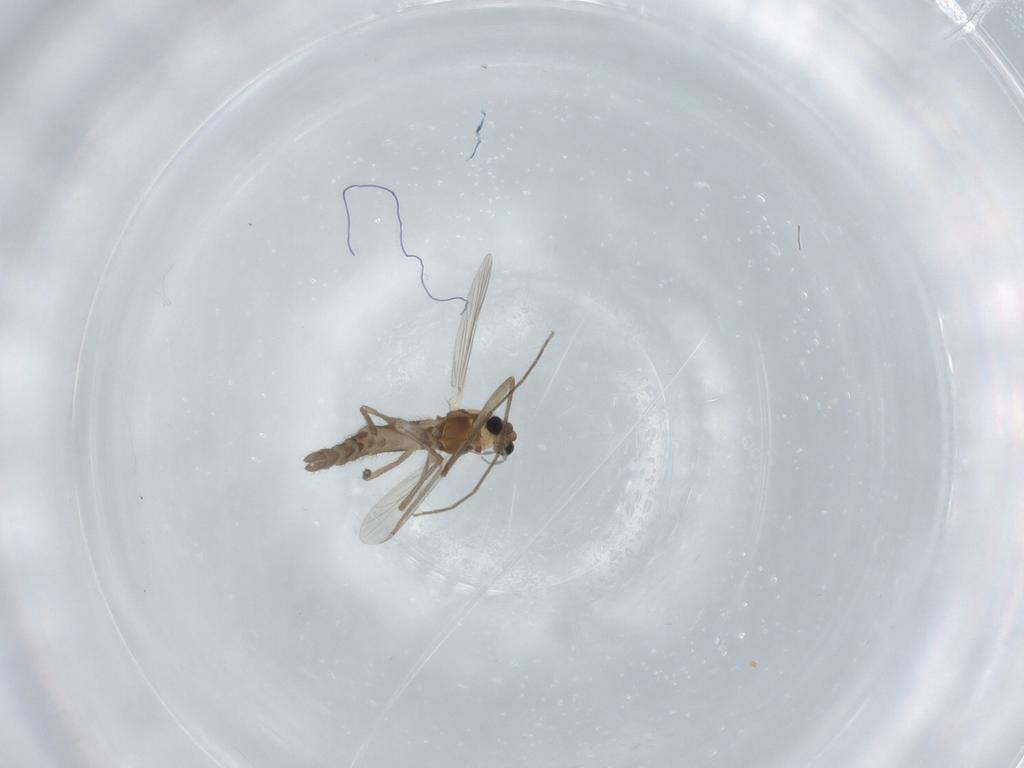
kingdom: Animalia
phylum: Arthropoda
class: Insecta
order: Diptera
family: Chironomidae
